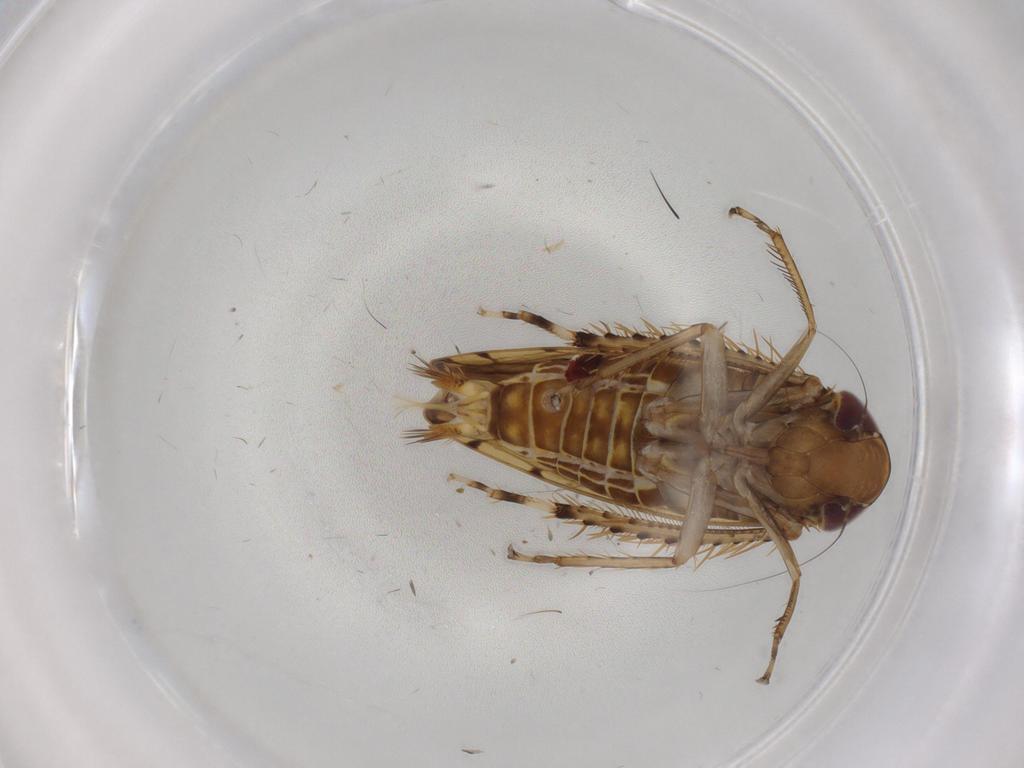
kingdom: Animalia
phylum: Arthropoda
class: Insecta
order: Hemiptera
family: Cicadellidae
